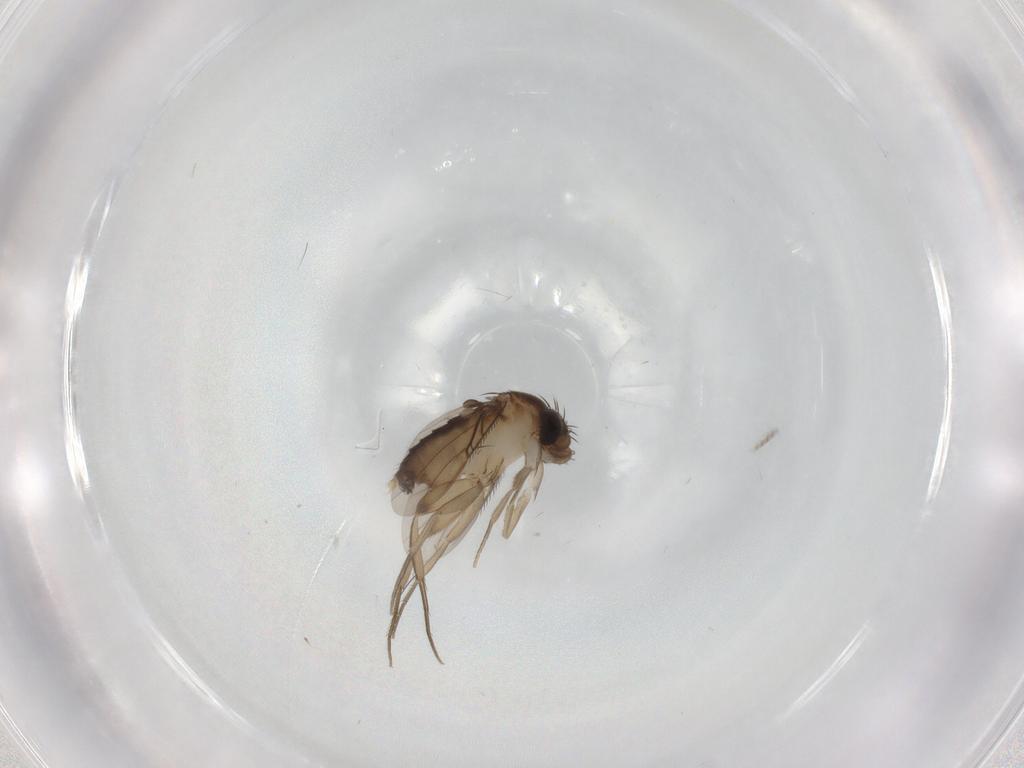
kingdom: Animalia
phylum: Arthropoda
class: Insecta
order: Diptera
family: Phoridae
